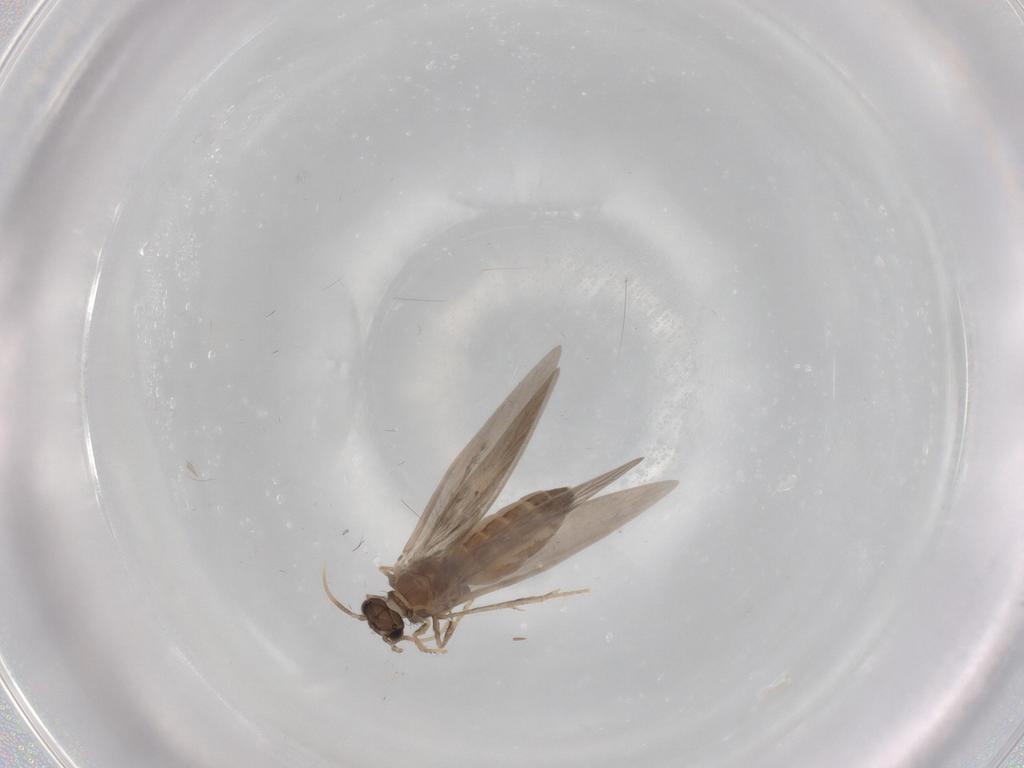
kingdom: Animalia
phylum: Arthropoda
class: Insecta
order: Trichoptera
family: Hydroptilidae
